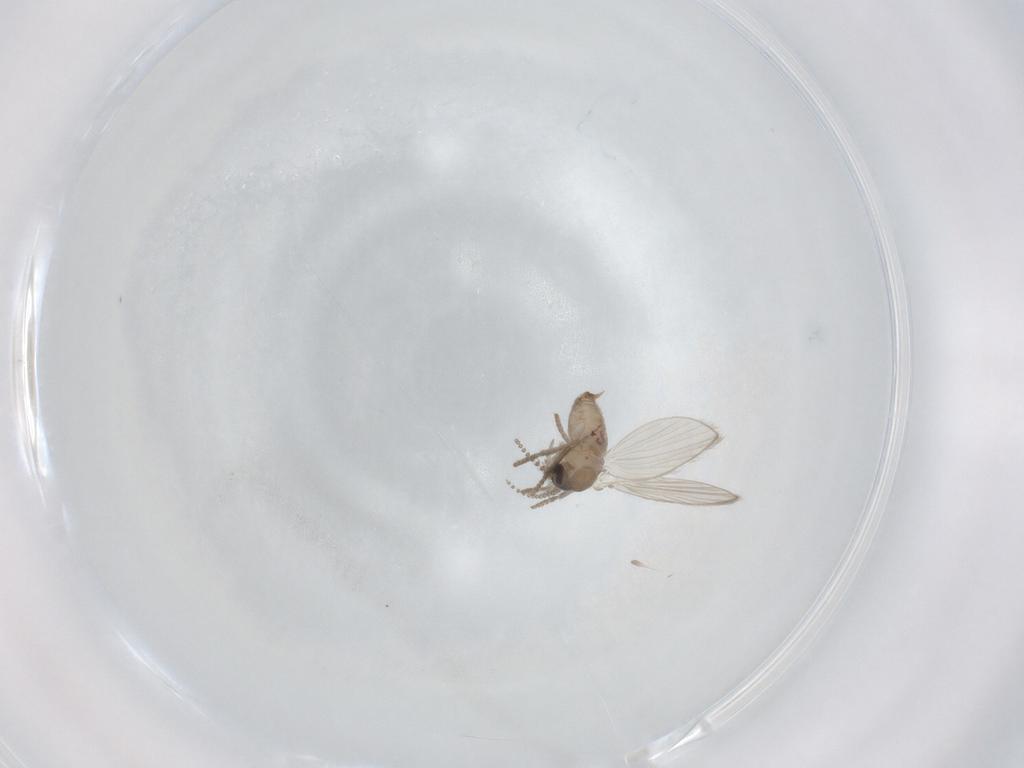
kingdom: Animalia
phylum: Arthropoda
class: Insecta
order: Diptera
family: Psychodidae
